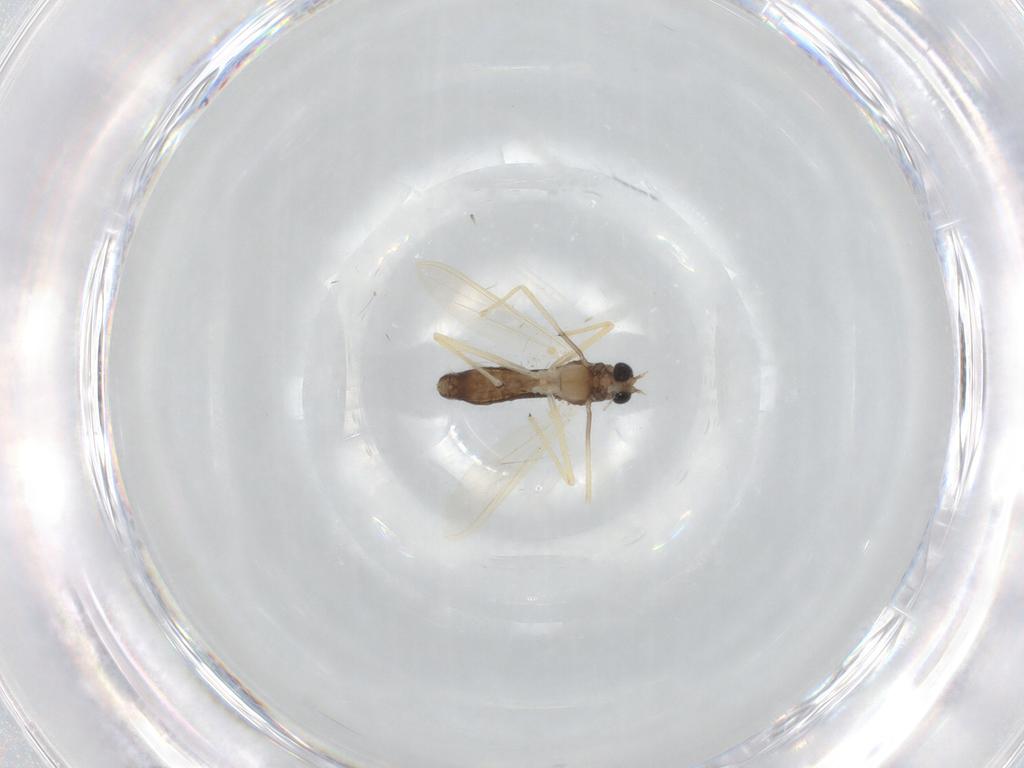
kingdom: Animalia
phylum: Arthropoda
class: Insecta
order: Diptera
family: Chironomidae
